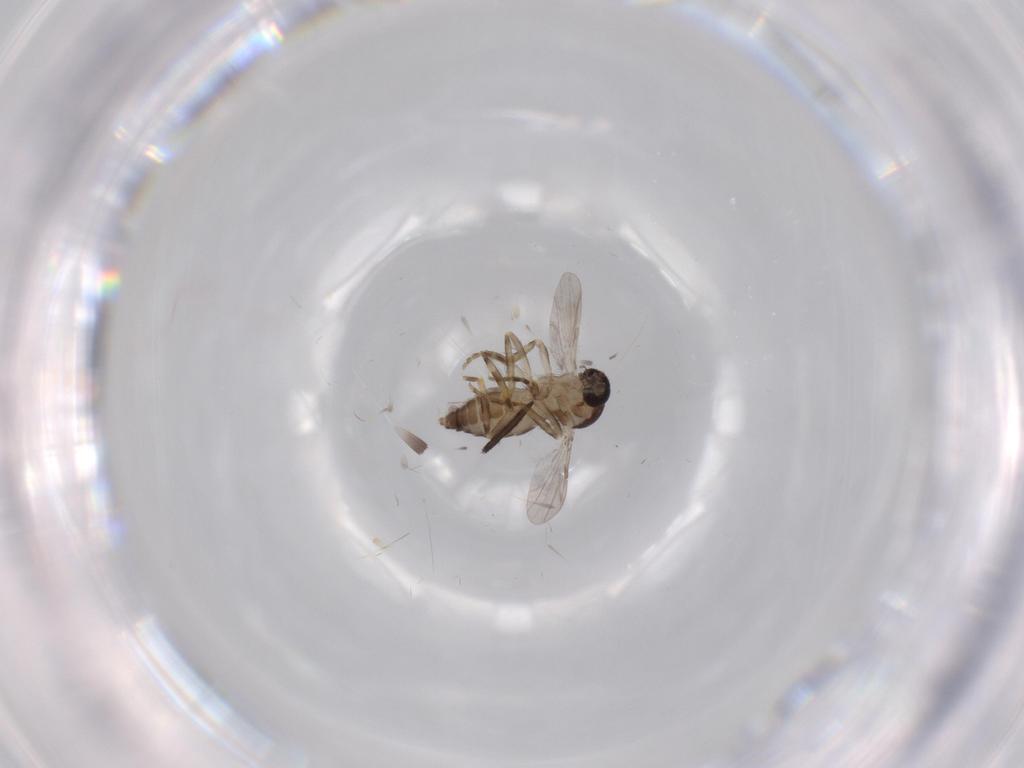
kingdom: Animalia
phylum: Arthropoda
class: Insecta
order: Diptera
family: Ceratopogonidae
